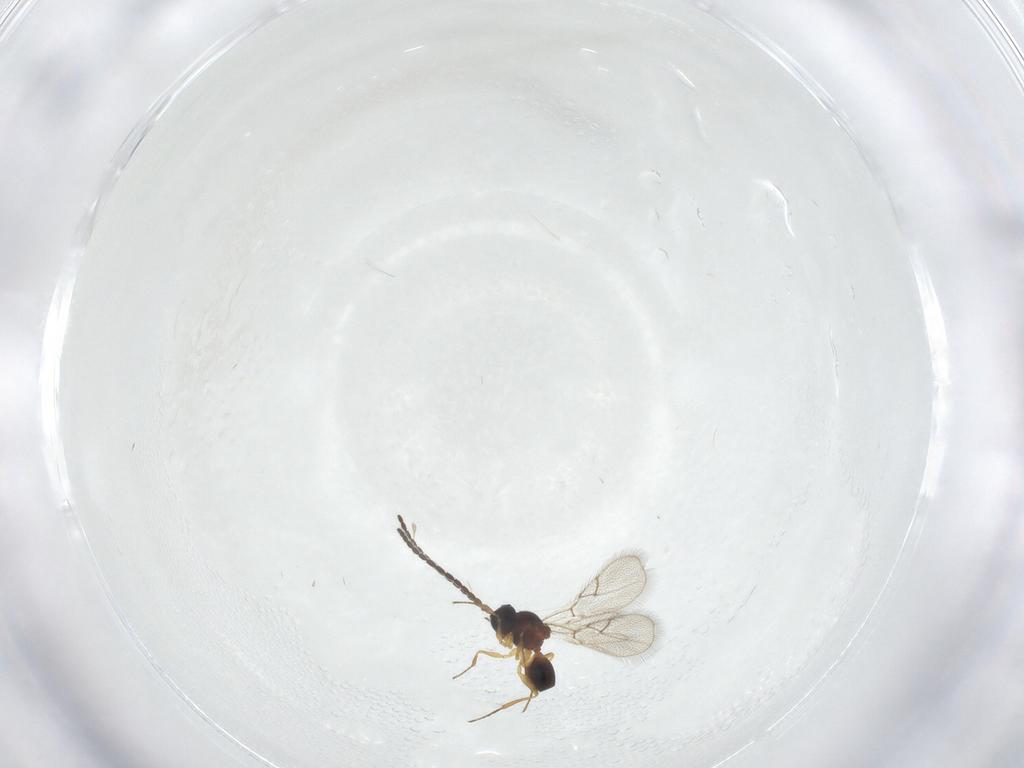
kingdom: Animalia
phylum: Arthropoda
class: Insecta
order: Hymenoptera
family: Figitidae
